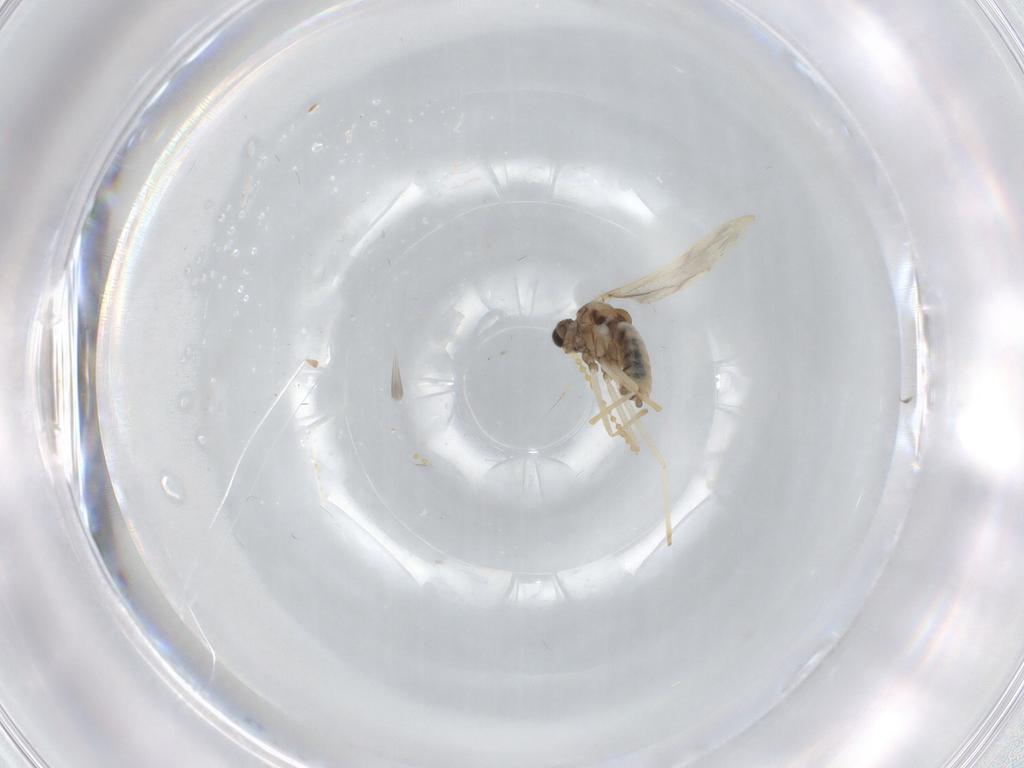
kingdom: Animalia
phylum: Arthropoda
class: Insecta
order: Diptera
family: Cecidomyiidae
